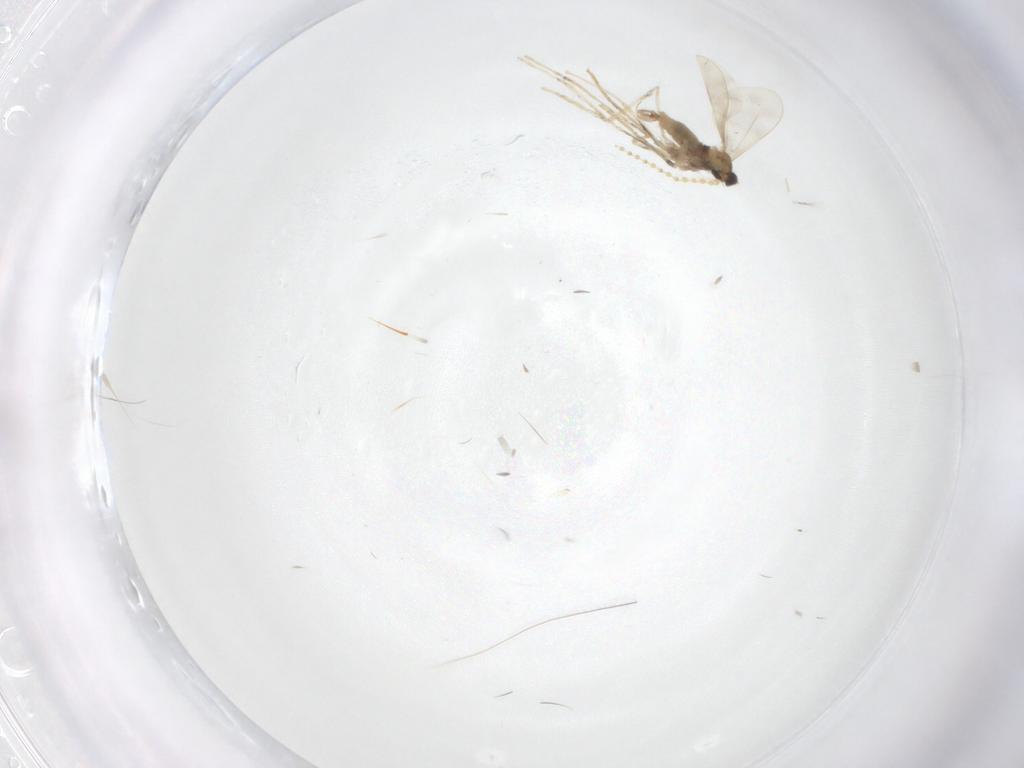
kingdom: Animalia
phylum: Arthropoda
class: Insecta
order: Diptera
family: Cecidomyiidae
